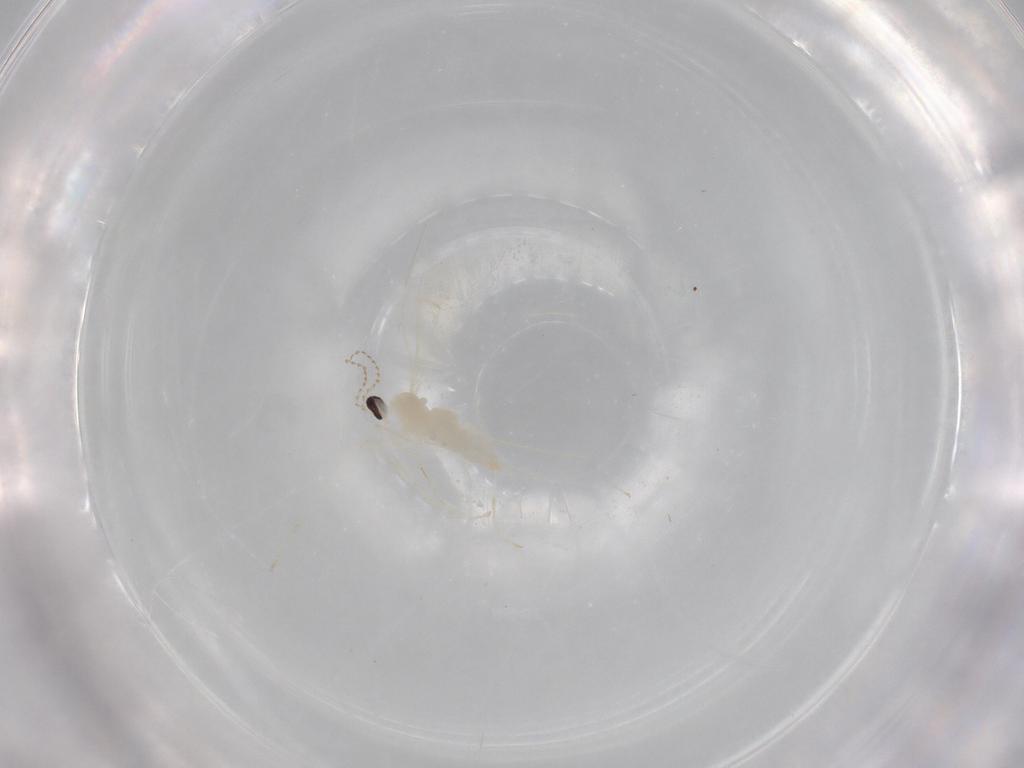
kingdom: Animalia
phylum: Arthropoda
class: Insecta
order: Diptera
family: Cecidomyiidae
